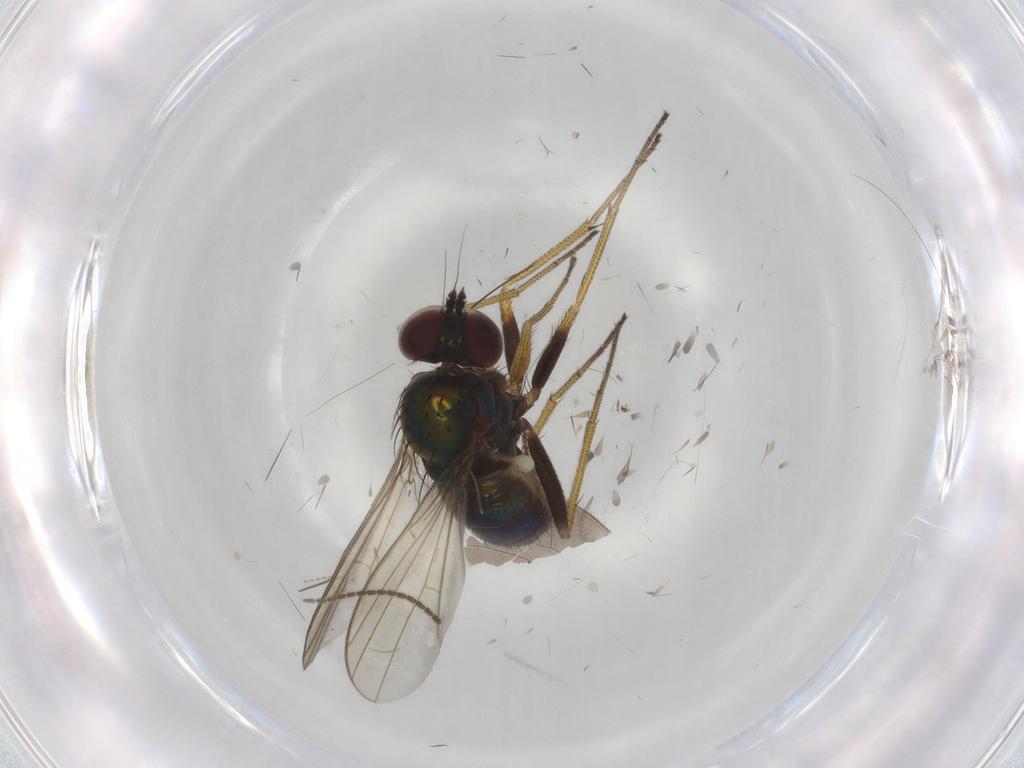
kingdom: Animalia
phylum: Arthropoda
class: Insecta
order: Diptera
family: Dolichopodidae
